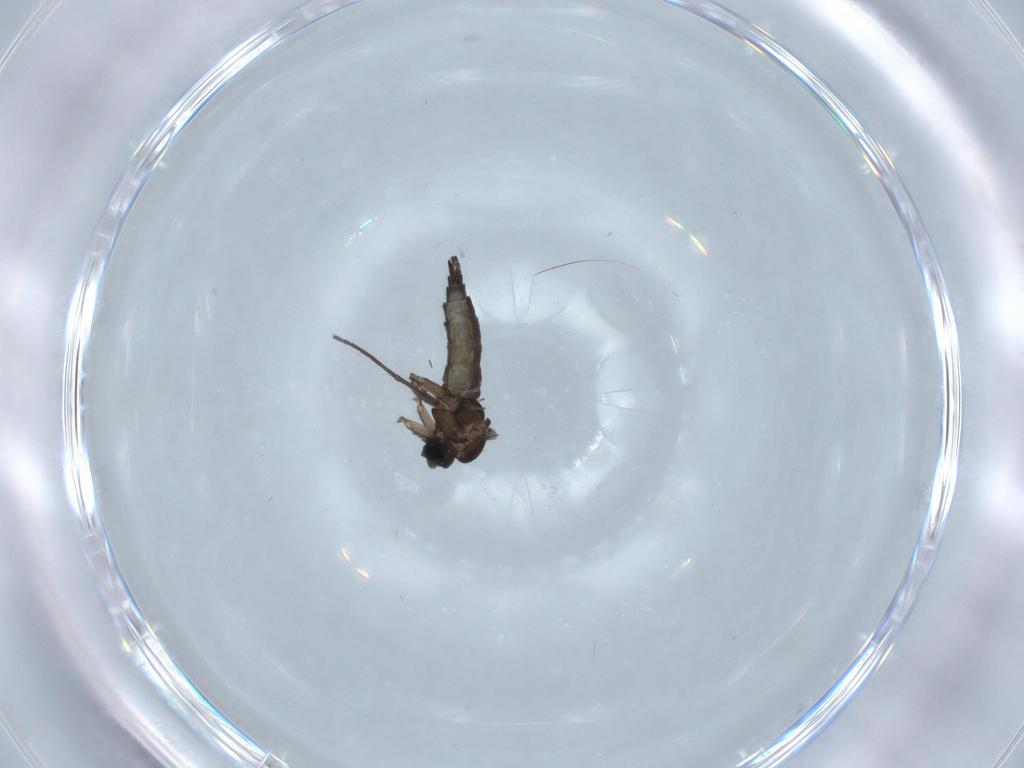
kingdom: Animalia
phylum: Arthropoda
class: Insecta
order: Diptera
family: Sciaridae
